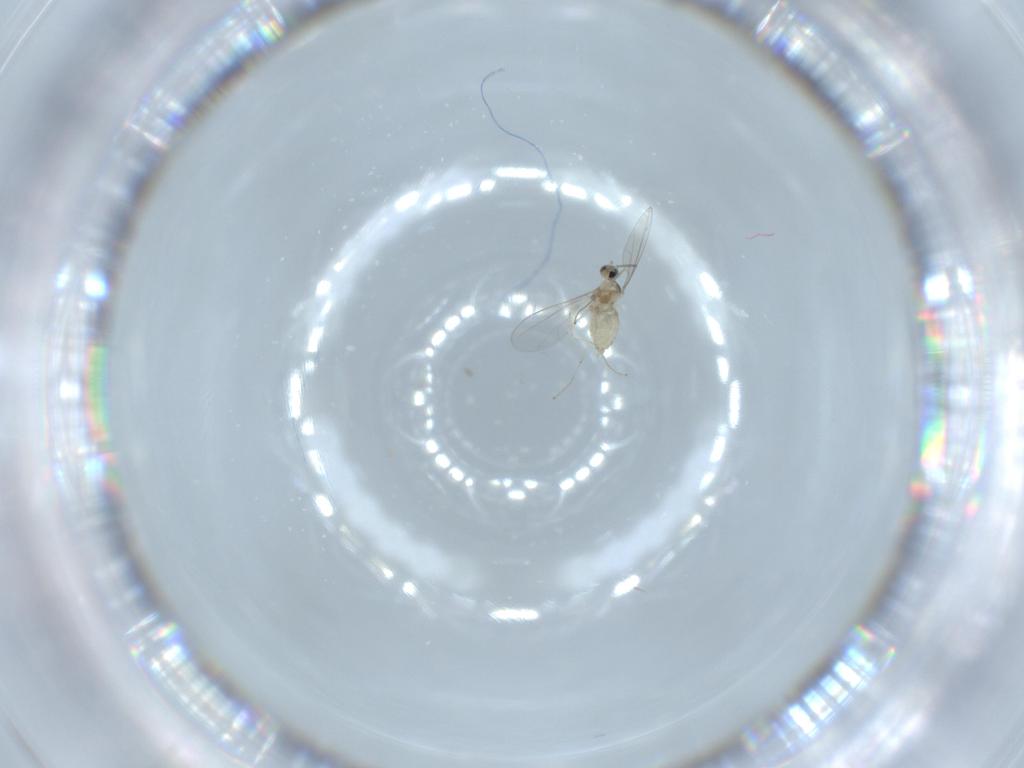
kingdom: Animalia
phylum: Arthropoda
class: Insecta
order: Diptera
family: Cecidomyiidae
